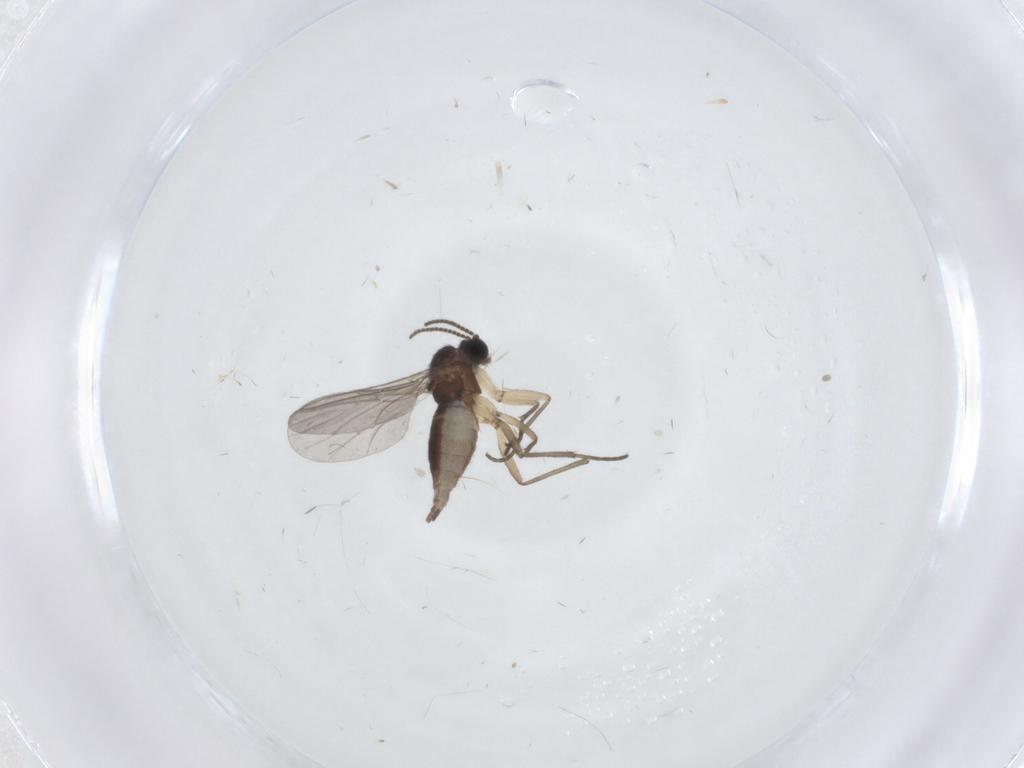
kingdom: Animalia
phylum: Arthropoda
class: Insecta
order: Diptera
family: Sciaridae
